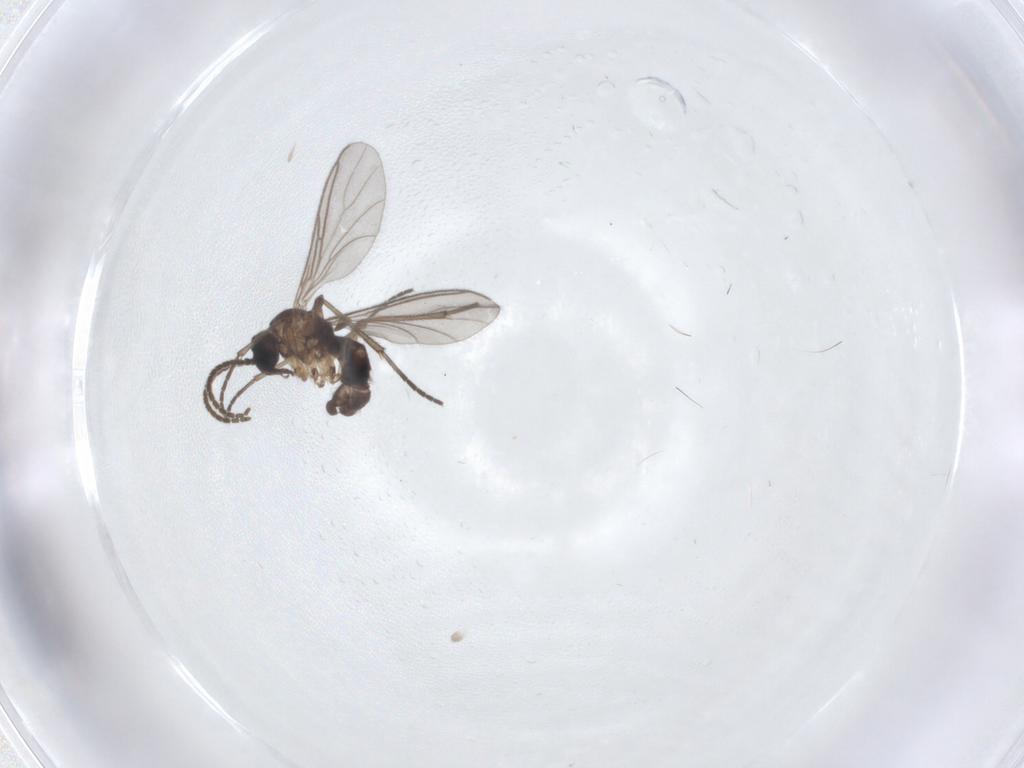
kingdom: Animalia
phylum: Arthropoda
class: Insecta
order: Diptera
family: Sciaridae
